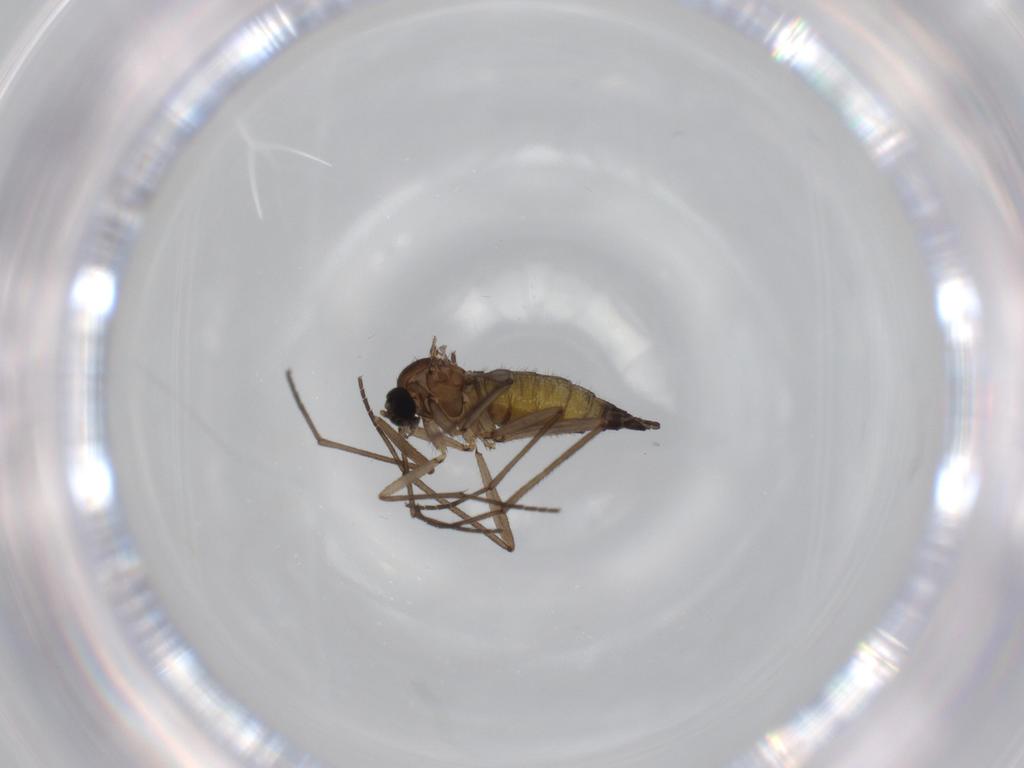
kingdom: Animalia
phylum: Arthropoda
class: Insecta
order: Diptera
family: Sciaridae
